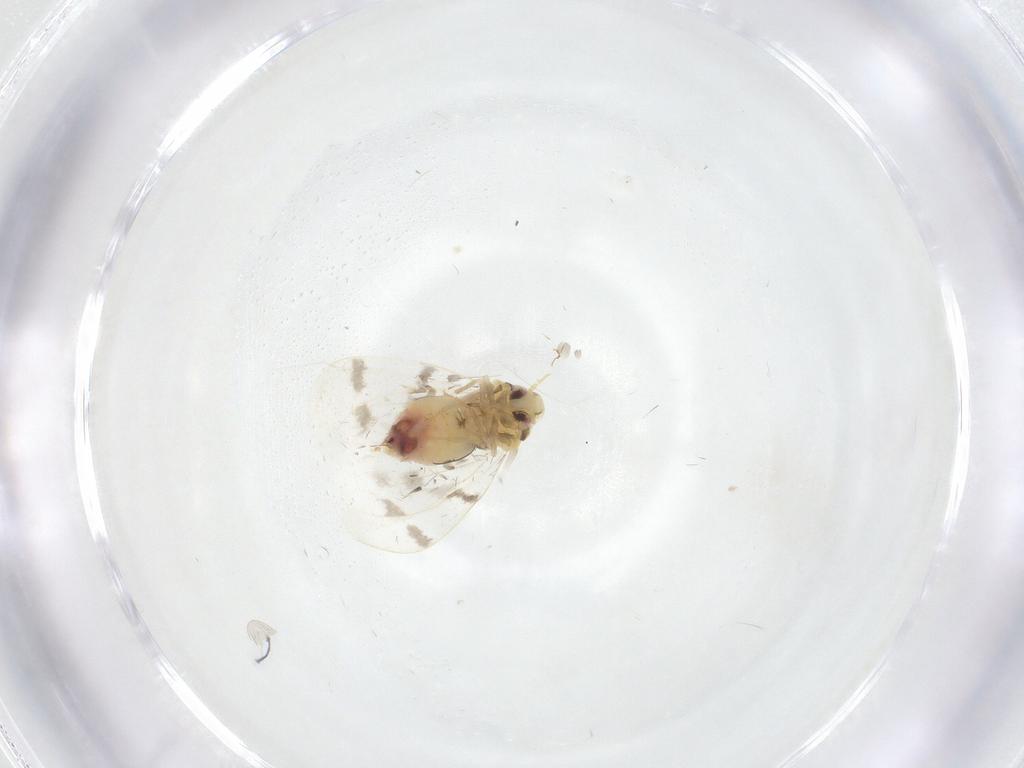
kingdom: Animalia
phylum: Arthropoda
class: Insecta
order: Hemiptera
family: Aleyrodidae
